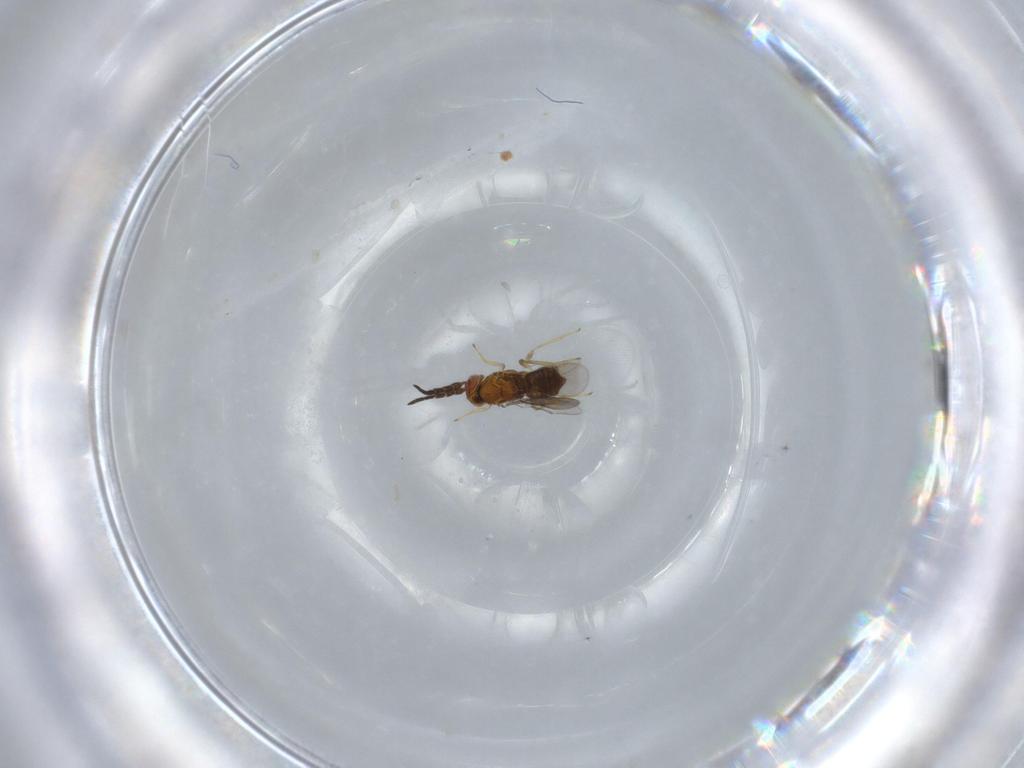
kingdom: Animalia
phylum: Arthropoda
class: Insecta
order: Hymenoptera
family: Aphelinidae
